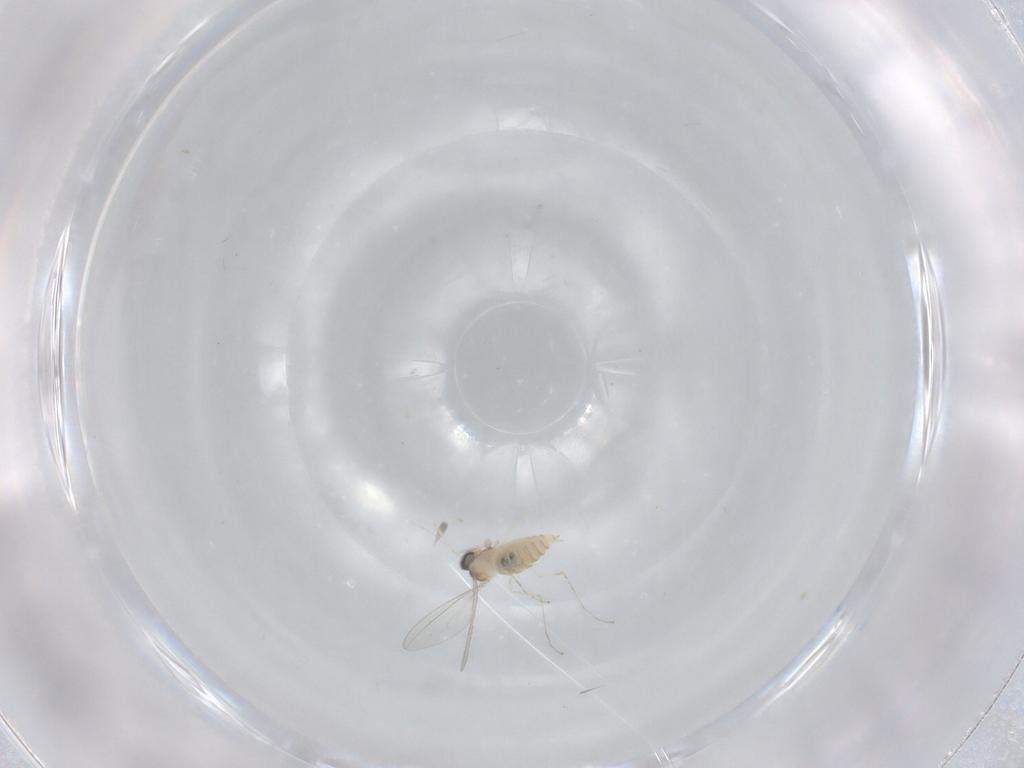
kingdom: Animalia
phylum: Arthropoda
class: Insecta
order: Diptera
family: Cecidomyiidae
